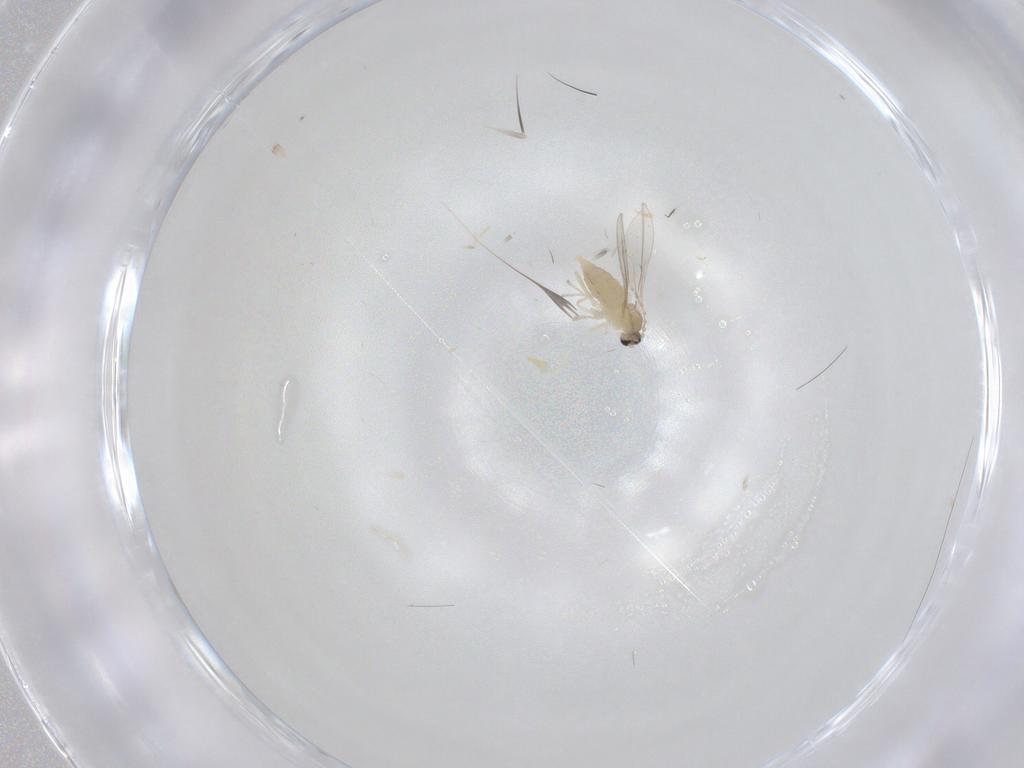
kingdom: Animalia
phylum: Arthropoda
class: Insecta
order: Diptera
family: Cecidomyiidae
